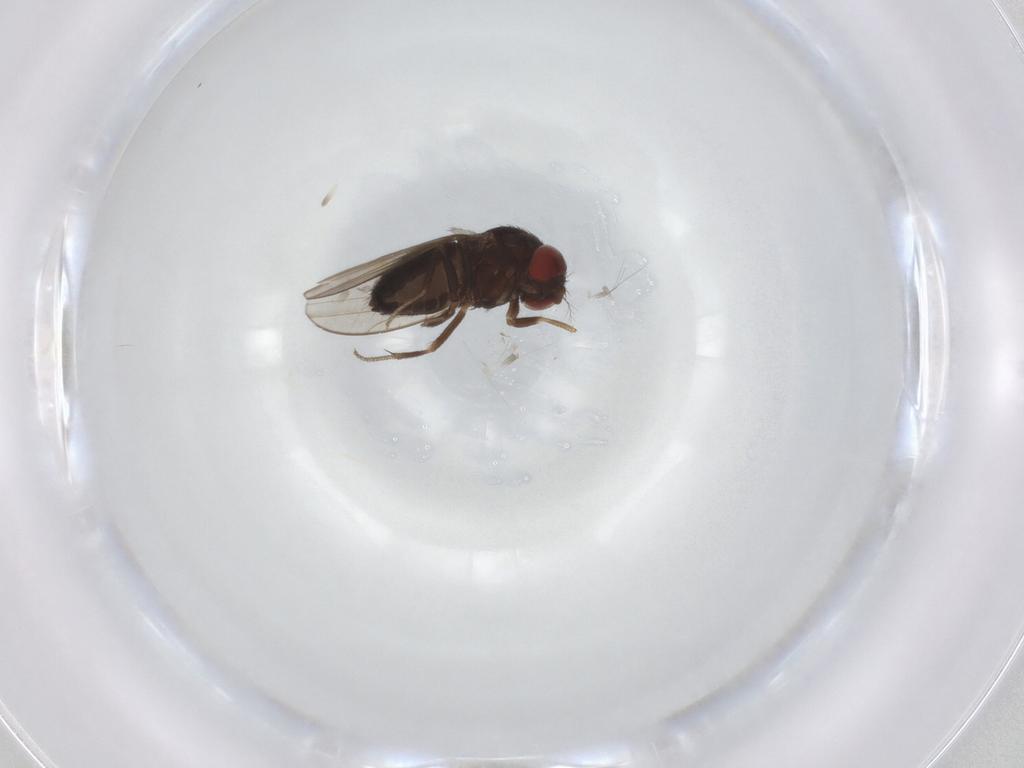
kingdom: Animalia
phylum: Arthropoda
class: Insecta
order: Diptera
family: Drosophilidae
